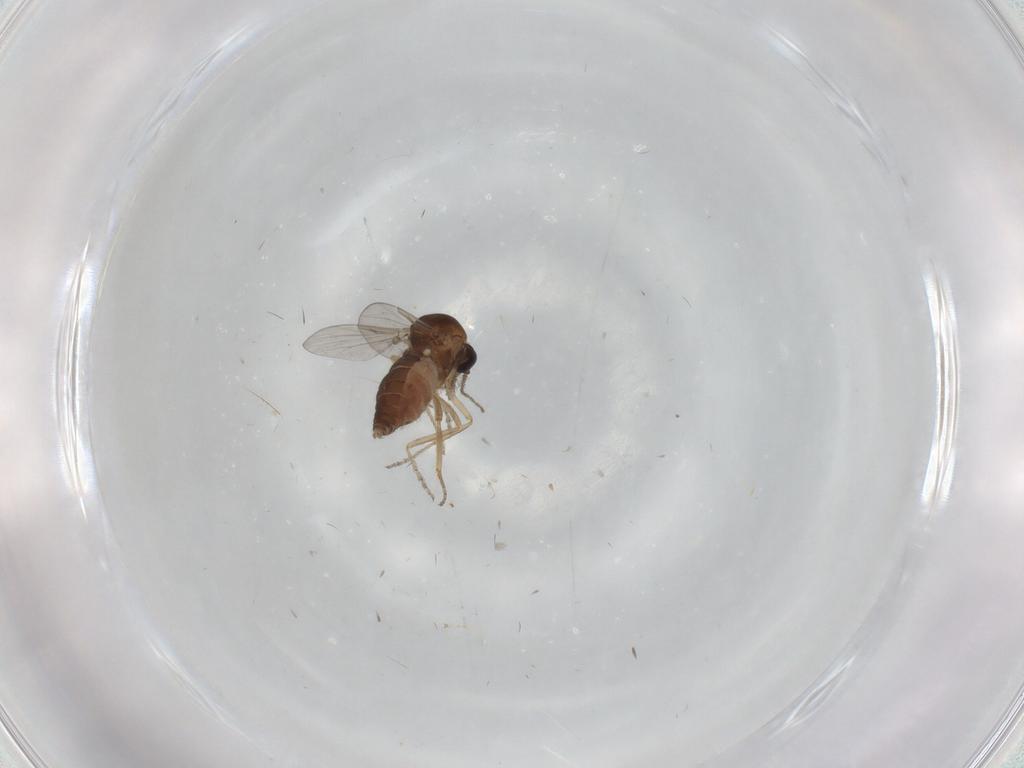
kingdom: Animalia
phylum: Arthropoda
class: Insecta
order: Diptera
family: Ceratopogonidae
